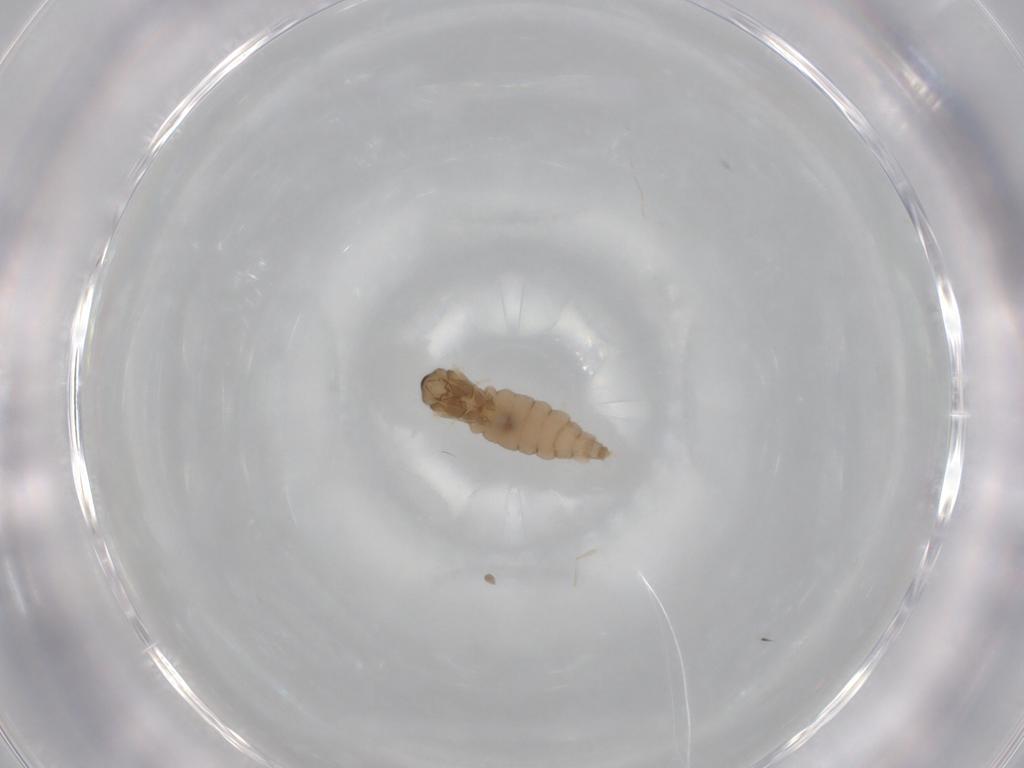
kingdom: Animalia
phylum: Arthropoda
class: Insecta
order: Diptera
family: Cecidomyiidae
